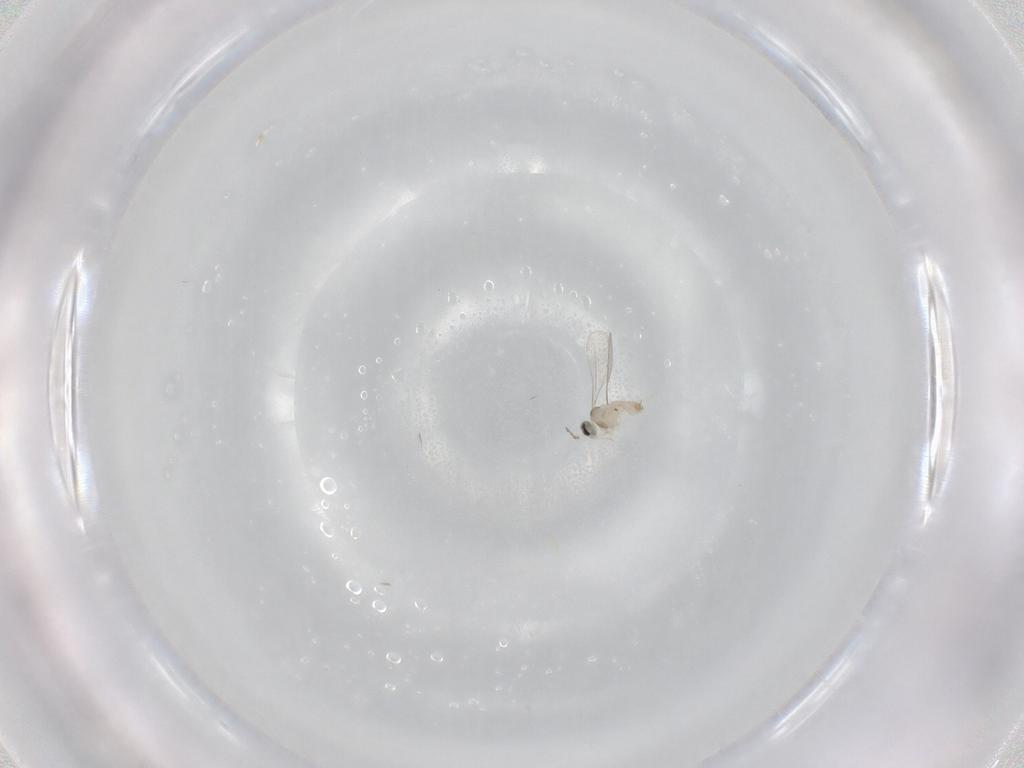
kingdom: Animalia
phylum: Arthropoda
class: Insecta
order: Diptera
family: Cecidomyiidae
